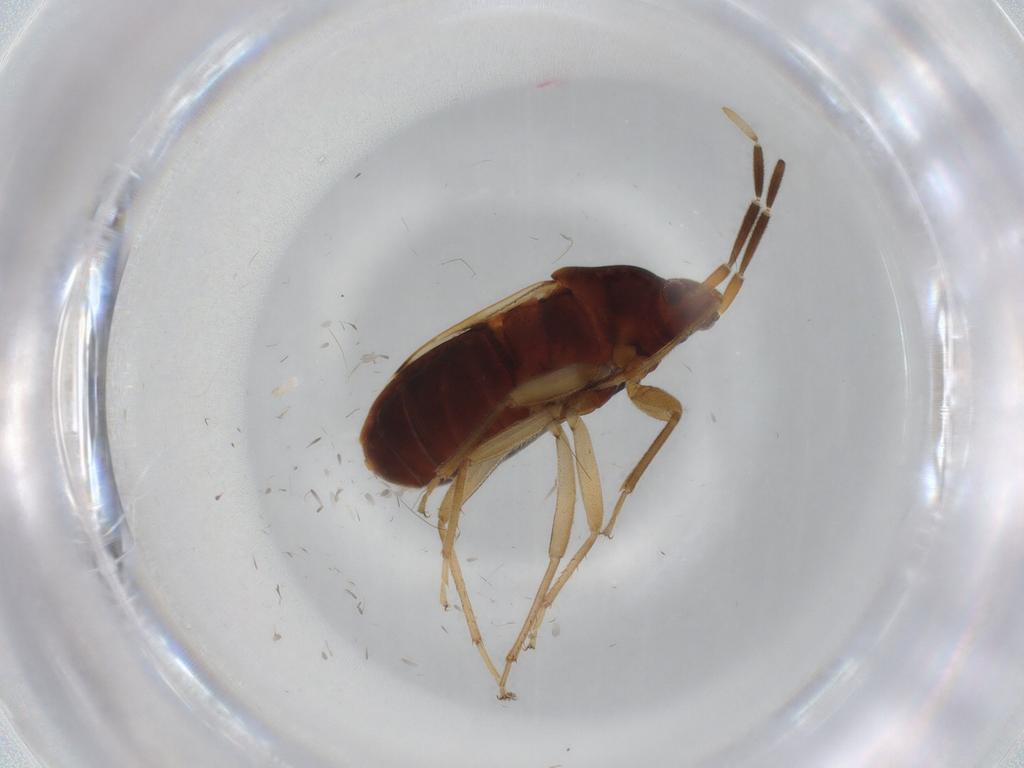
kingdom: Animalia
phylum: Arthropoda
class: Insecta
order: Hemiptera
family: Rhyparochromidae
